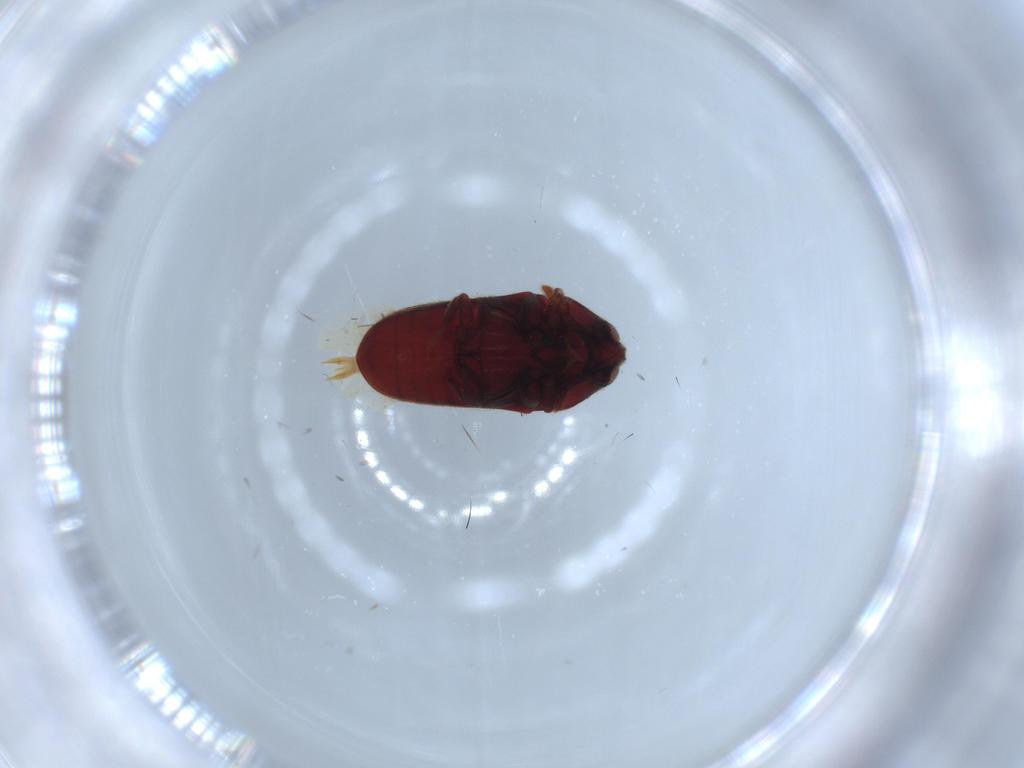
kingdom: Animalia
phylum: Arthropoda
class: Insecta
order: Coleoptera
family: Throscidae
